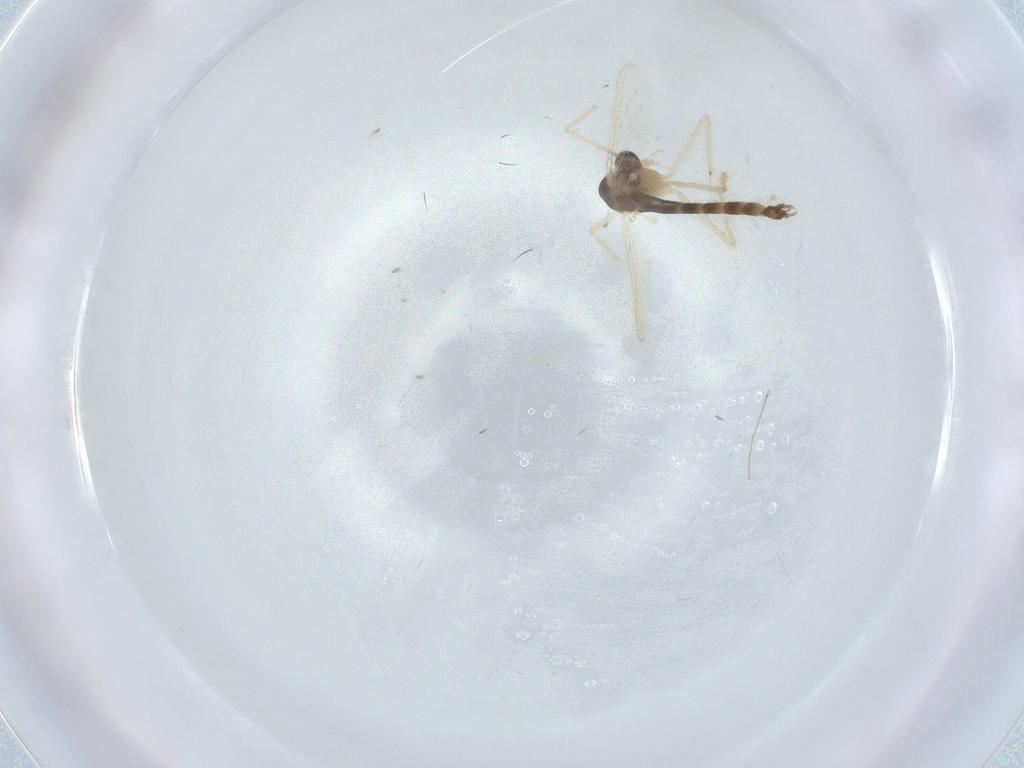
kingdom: Animalia
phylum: Arthropoda
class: Insecta
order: Diptera
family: Chironomidae
